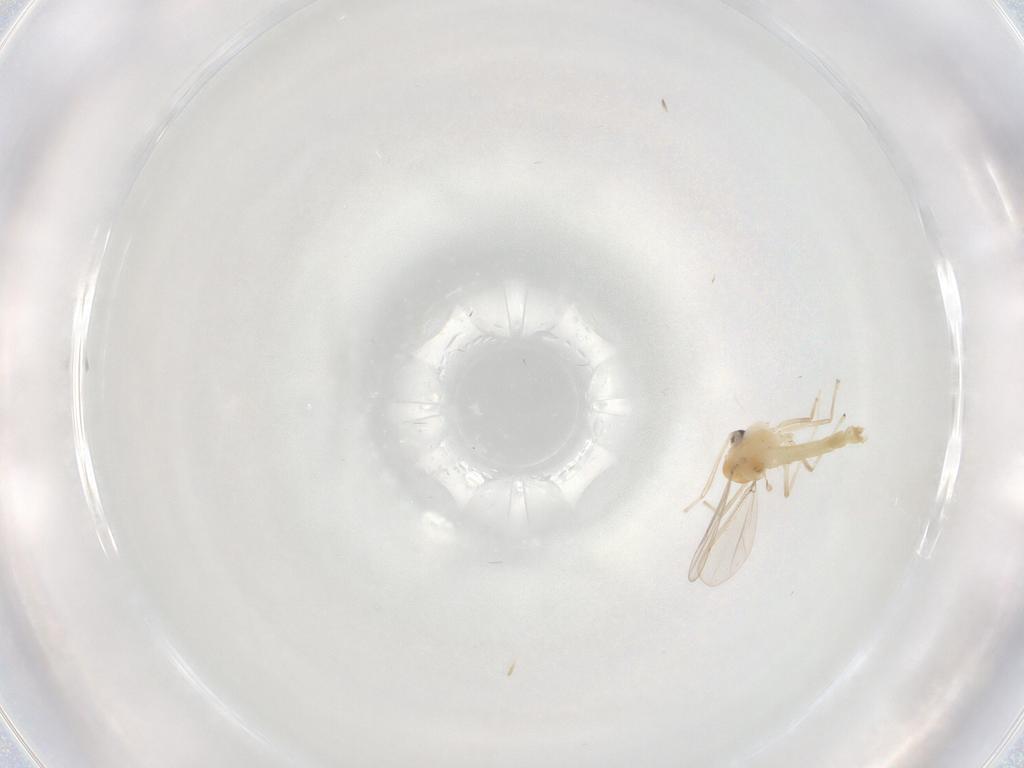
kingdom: Animalia
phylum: Arthropoda
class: Insecta
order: Diptera
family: Chironomidae
